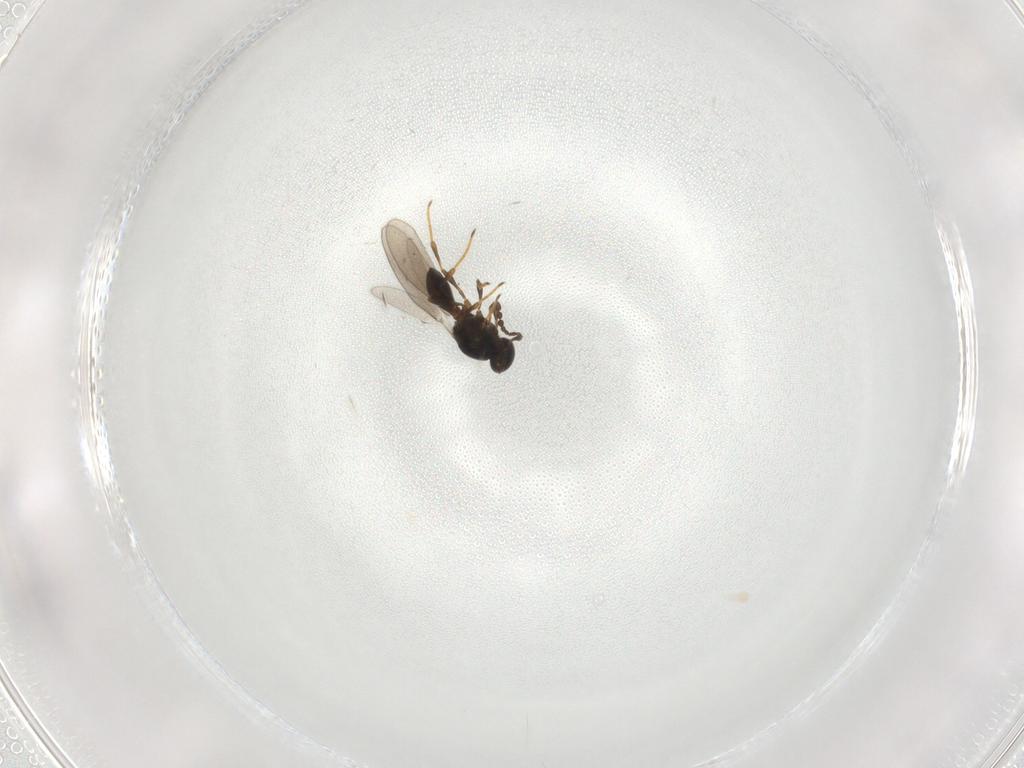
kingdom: Animalia
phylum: Arthropoda
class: Insecta
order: Hymenoptera
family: Platygastridae
